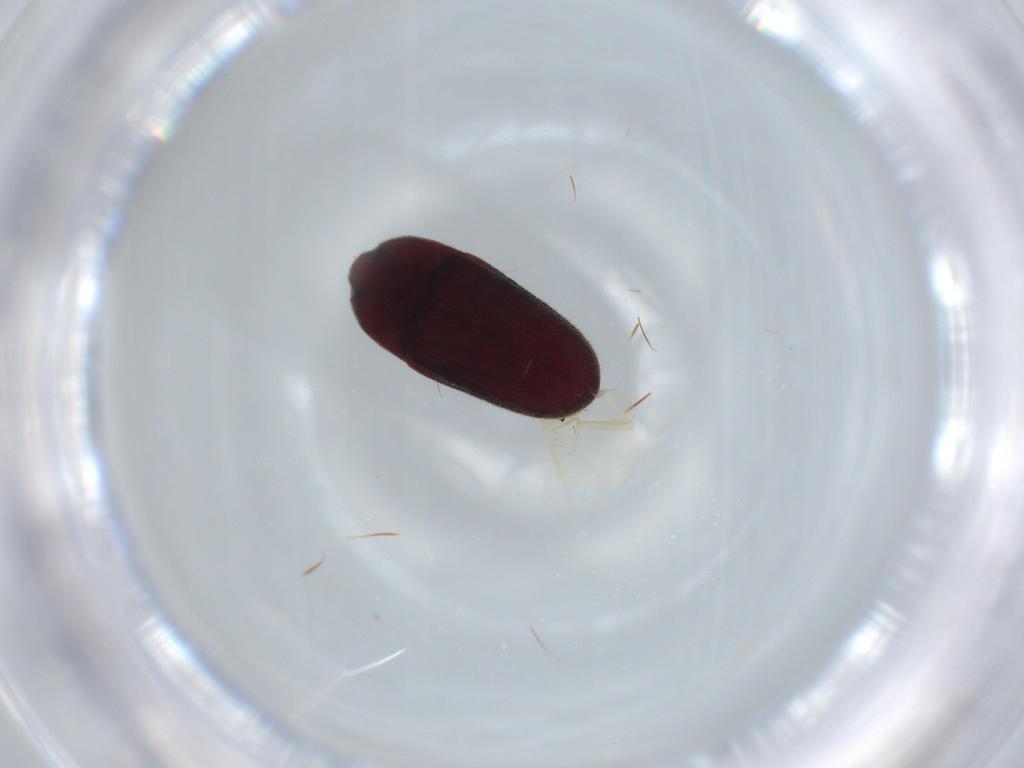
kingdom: Animalia
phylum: Arthropoda
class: Insecta
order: Coleoptera
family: Throscidae
